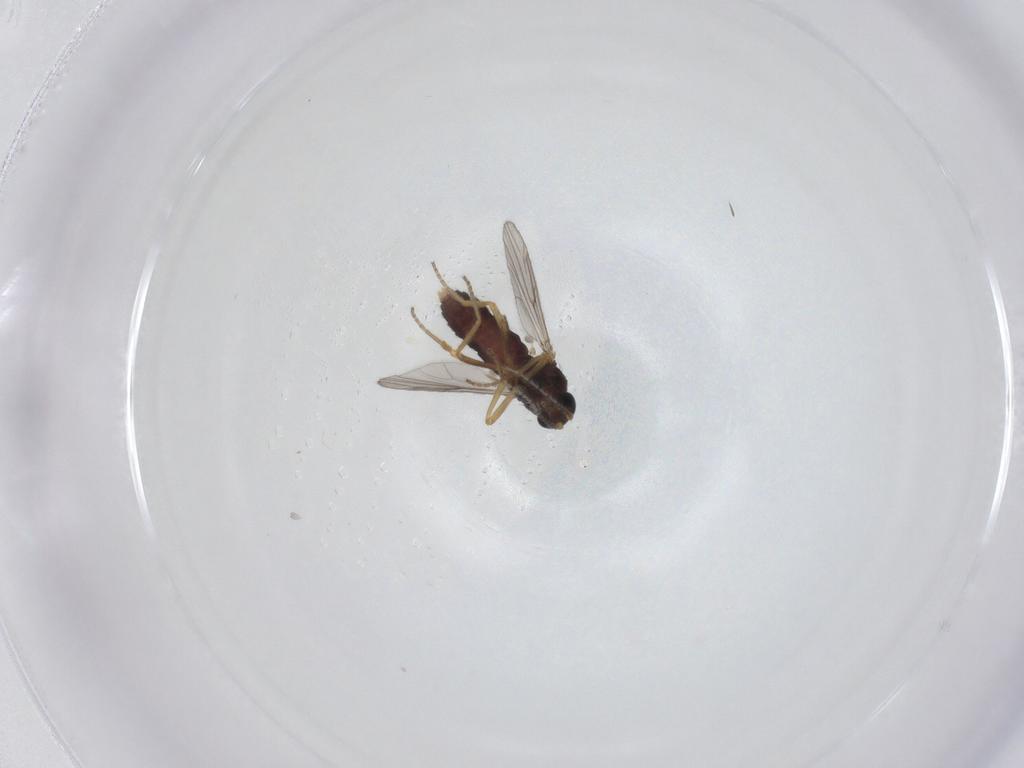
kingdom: Animalia
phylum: Arthropoda
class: Insecta
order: Diptera
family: Ceratopogonidae
